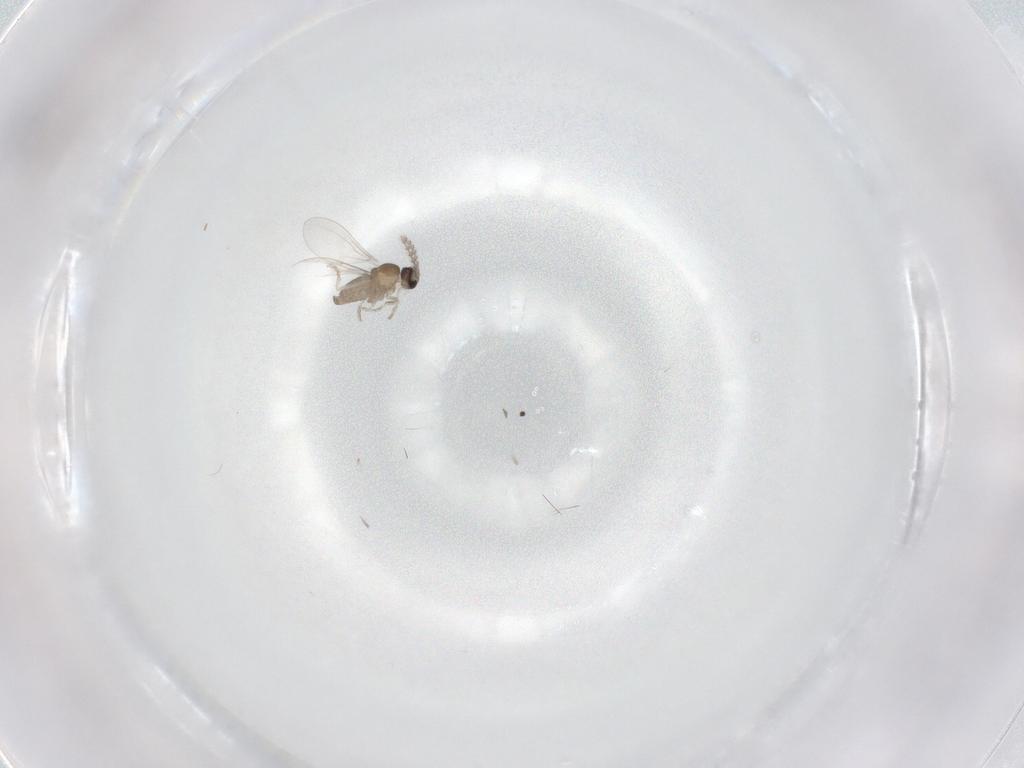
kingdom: Animalia
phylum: Arthropoda
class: Insecta
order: Diptera
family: Cecidomyiidae
